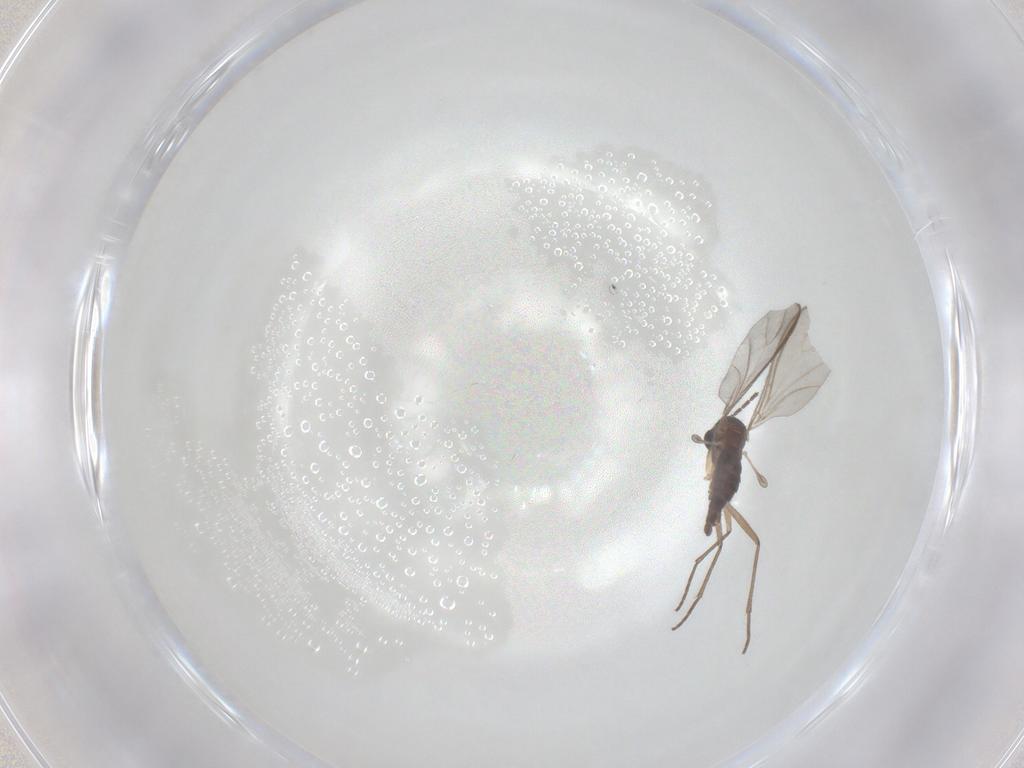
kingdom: Animalia
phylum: Arthropoda
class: Insecta
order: Diptera
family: Sciaridae
